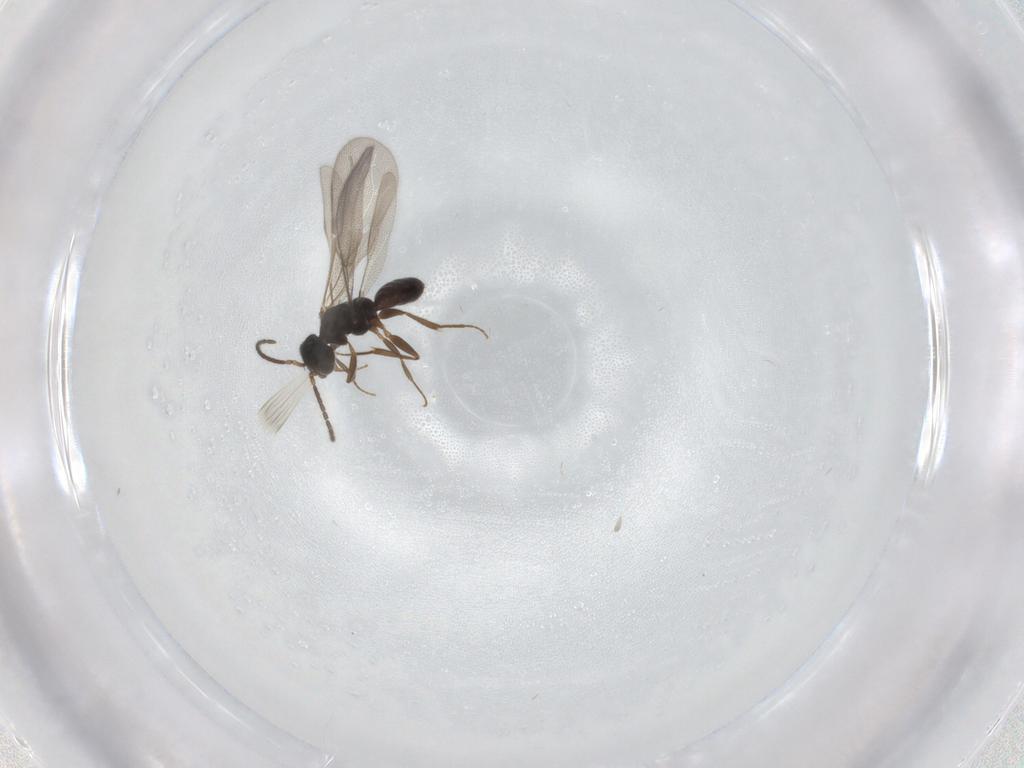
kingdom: Animalia
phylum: Arthropoda
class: Insecta
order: Hymenoptera
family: Bethylidae
